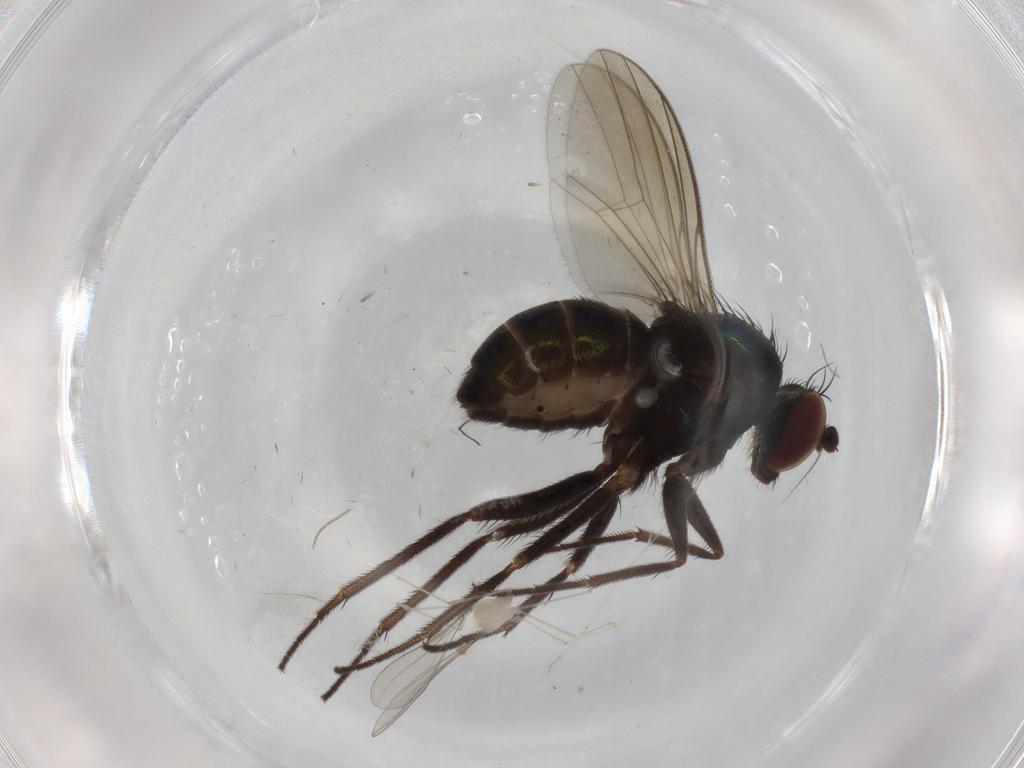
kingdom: Animalia
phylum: Arthropoda
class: Insecta
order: Diptera
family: Dolichopodidae
